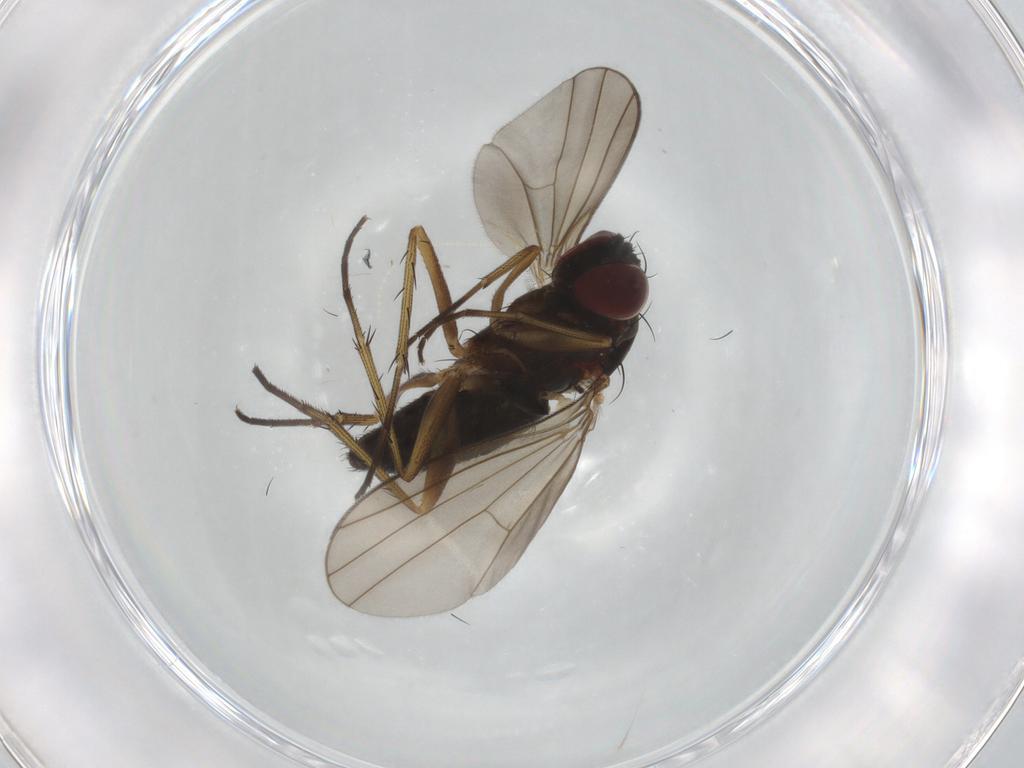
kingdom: Animalia
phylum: Arthropoda
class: Insecta
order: Diptera
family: Dolichopodidae
